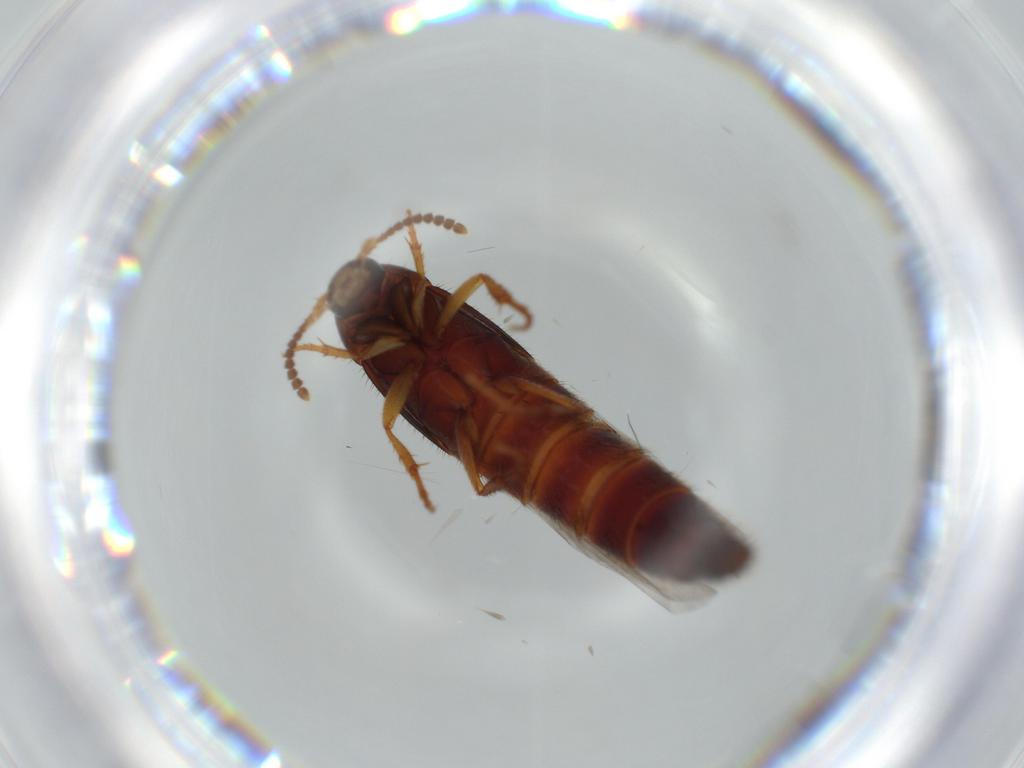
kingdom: Animalia
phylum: Arthropoda
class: Insecta
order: Coleoptera
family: Staphylinidae
